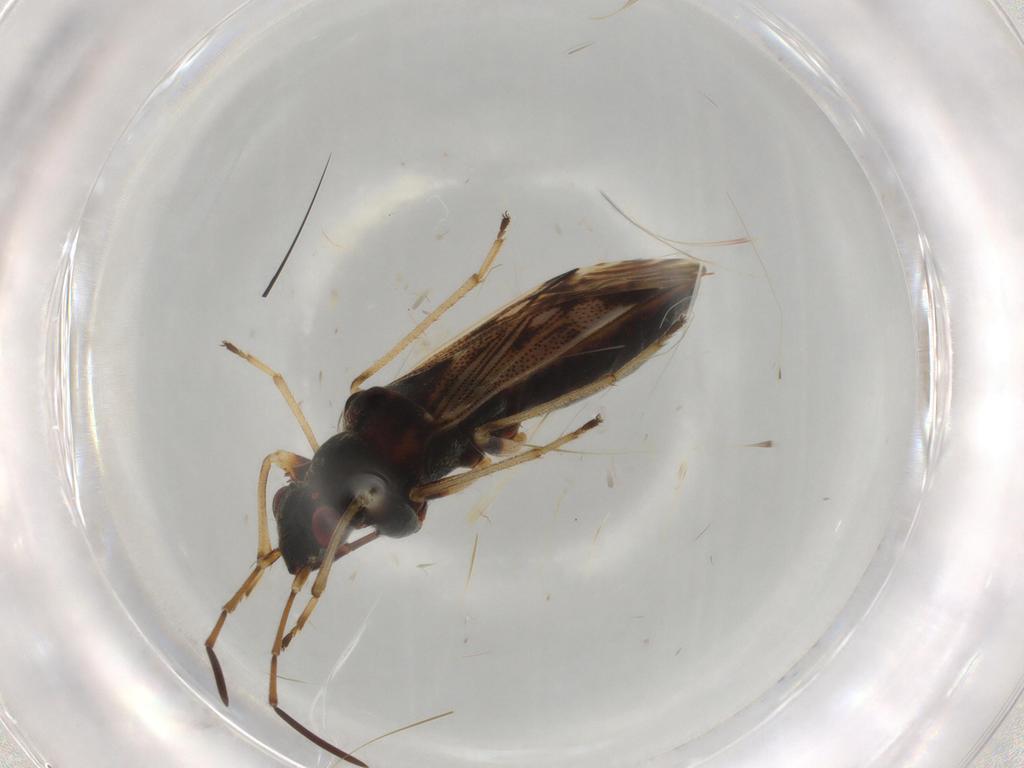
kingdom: Animalia
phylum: Arthropoda
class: Insecta
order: Hemiptera
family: Rhyparochromidae
